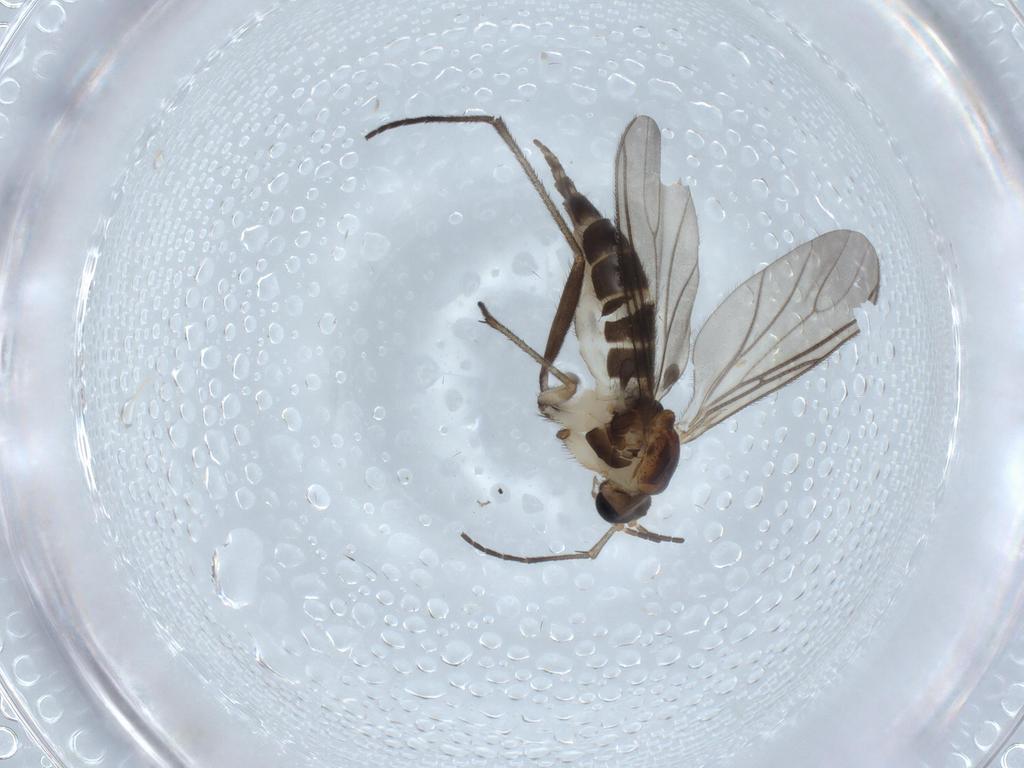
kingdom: Animalia
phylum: Arthropoda
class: Insecta
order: Diptera
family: Sciaridae
